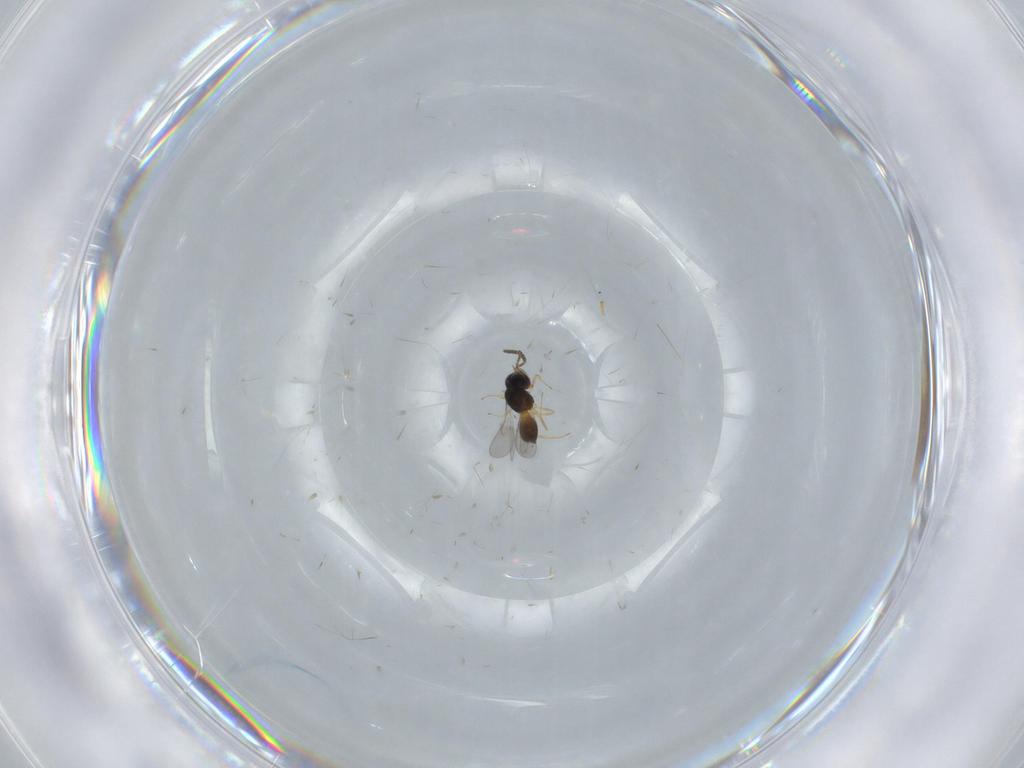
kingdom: Animalia
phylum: Arthropoda
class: Insecta
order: Hymenoptera
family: Scelionidae
